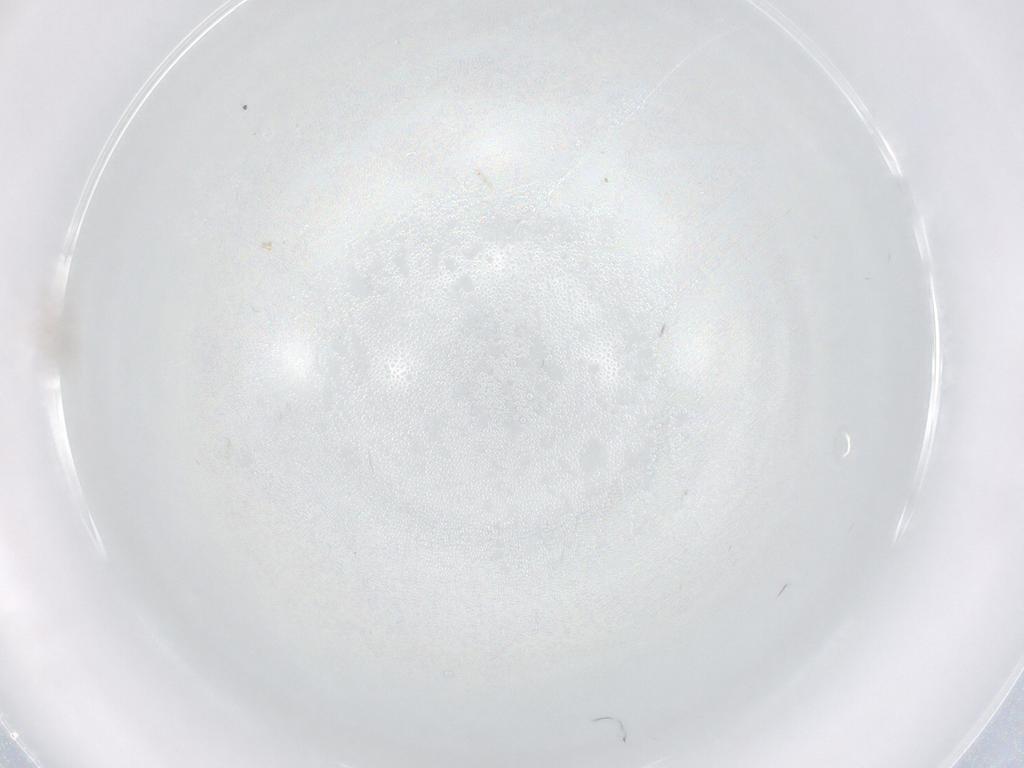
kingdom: Animalia
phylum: Arthropoda
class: Insecta
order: Diptera
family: Cecidomyiidae
